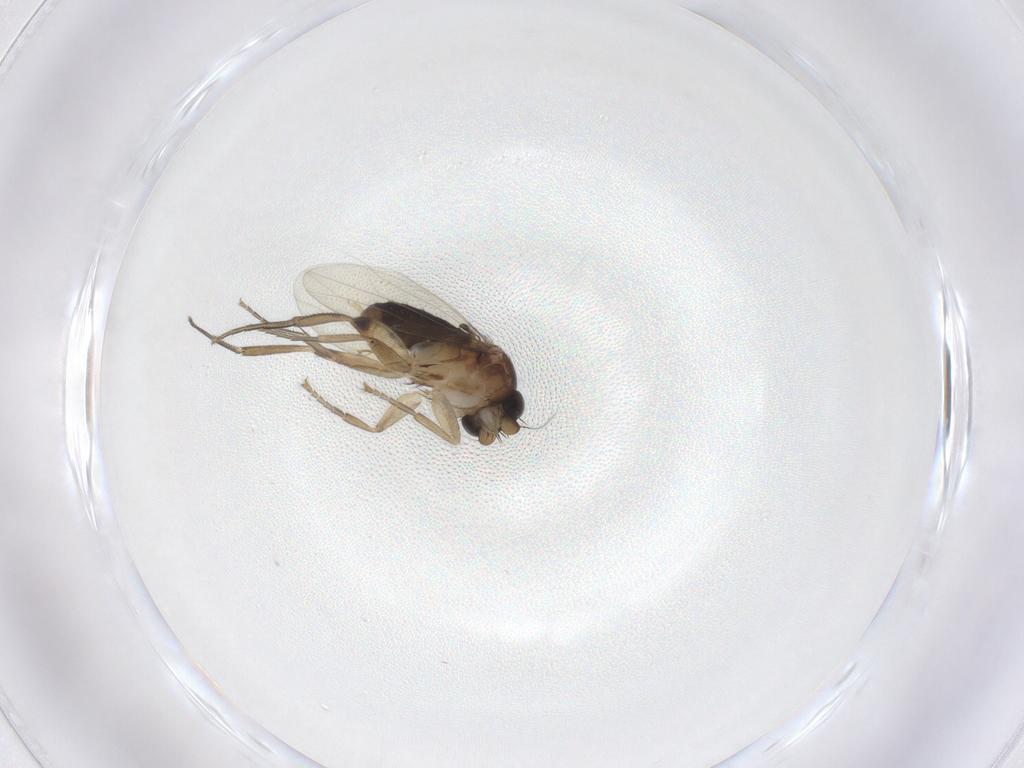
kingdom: Animalia
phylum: Arthropoda
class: Insecta
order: Diptera
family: Phoridae
